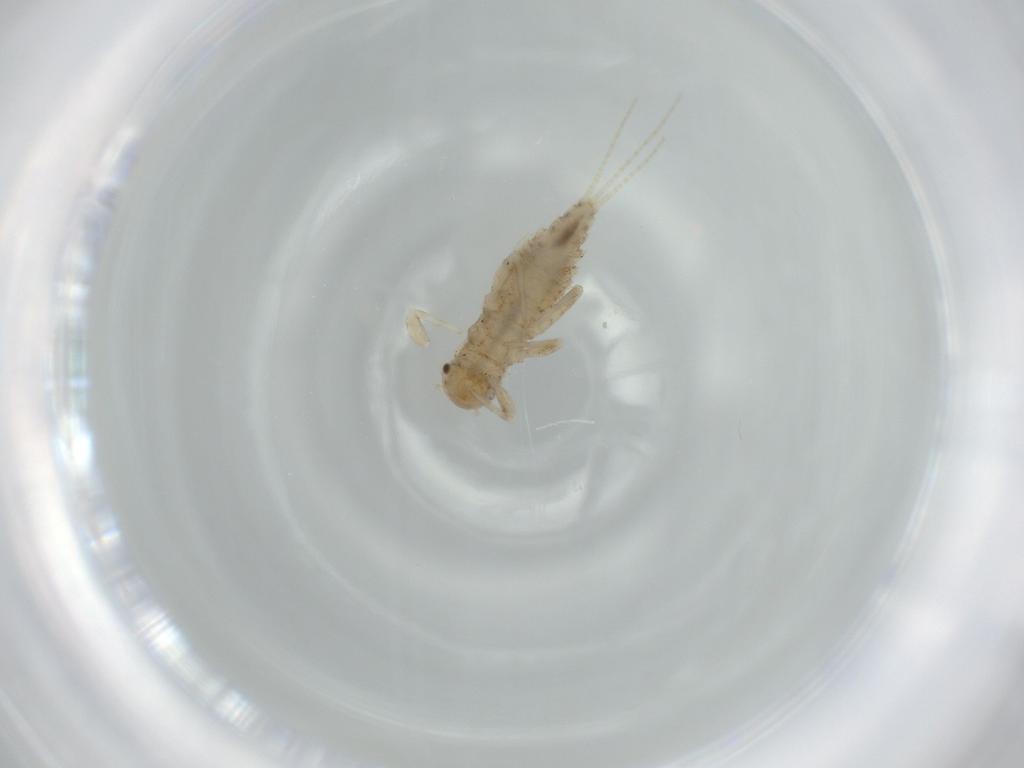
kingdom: Animalia
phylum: Arthropoda
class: Insecta
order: Ephemeroptera
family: Caenidae
